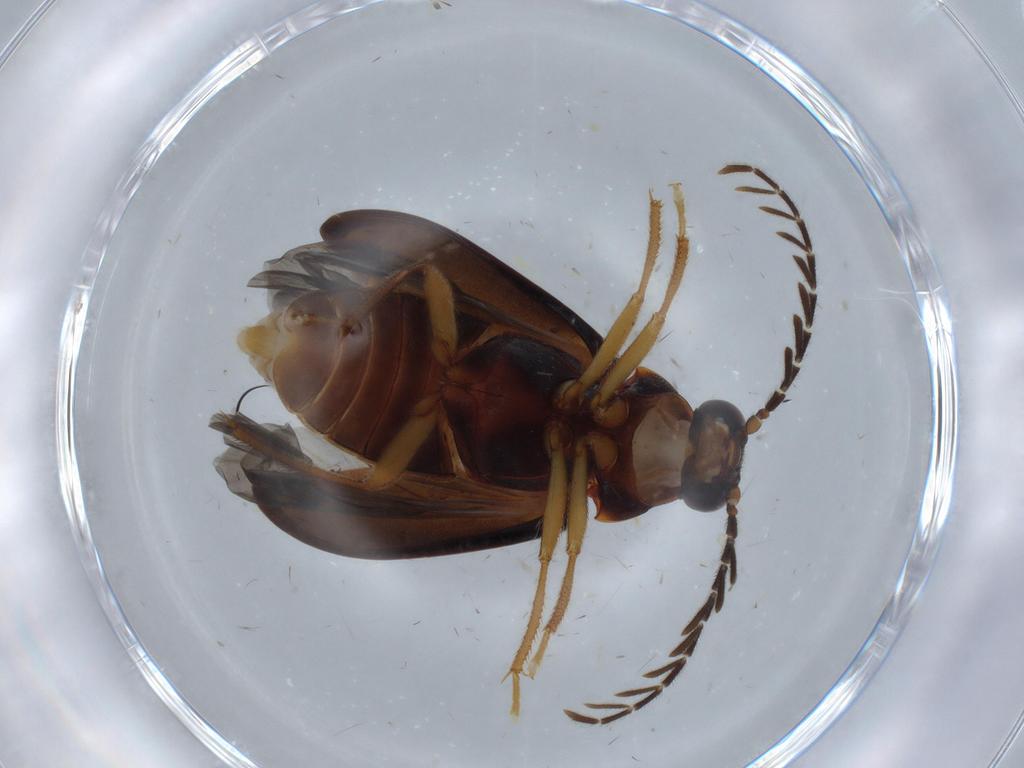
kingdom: Animalia
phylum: Arthropoda
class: Insecta
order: Coleoptera
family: Ptilodactylidae
